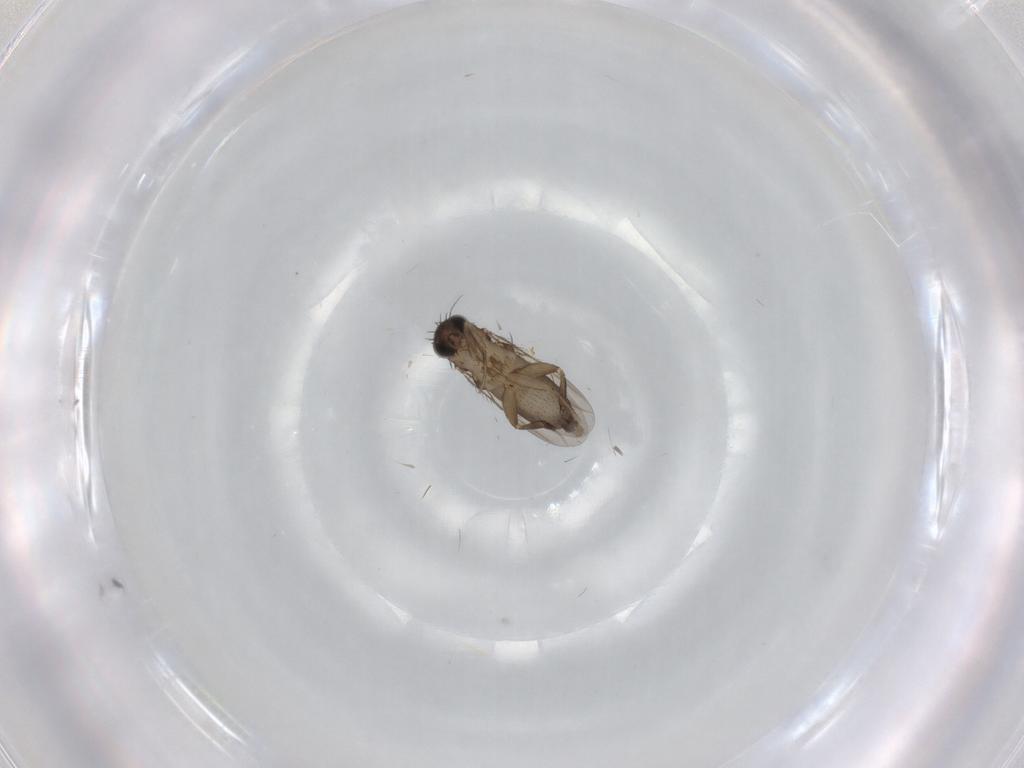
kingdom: Animalia
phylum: Arthropoda
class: Insecta
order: Diptera
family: Phoridae
